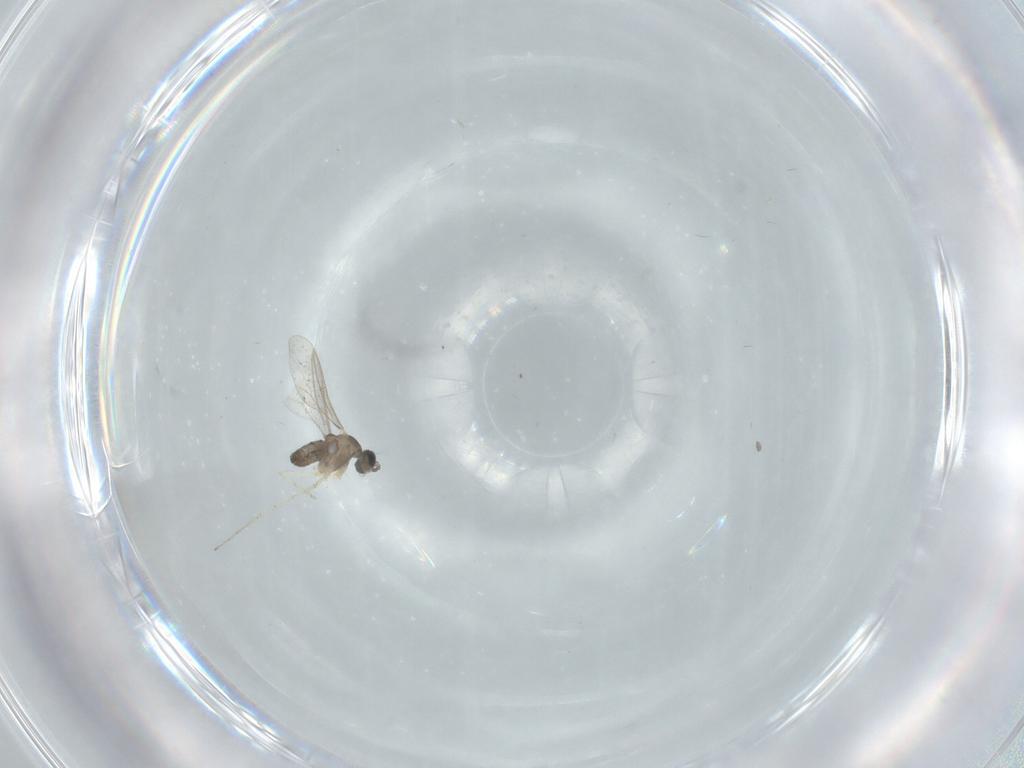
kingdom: Animalia
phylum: Arthropoda
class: Insecta
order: Diptera
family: Cecidomyiidae
